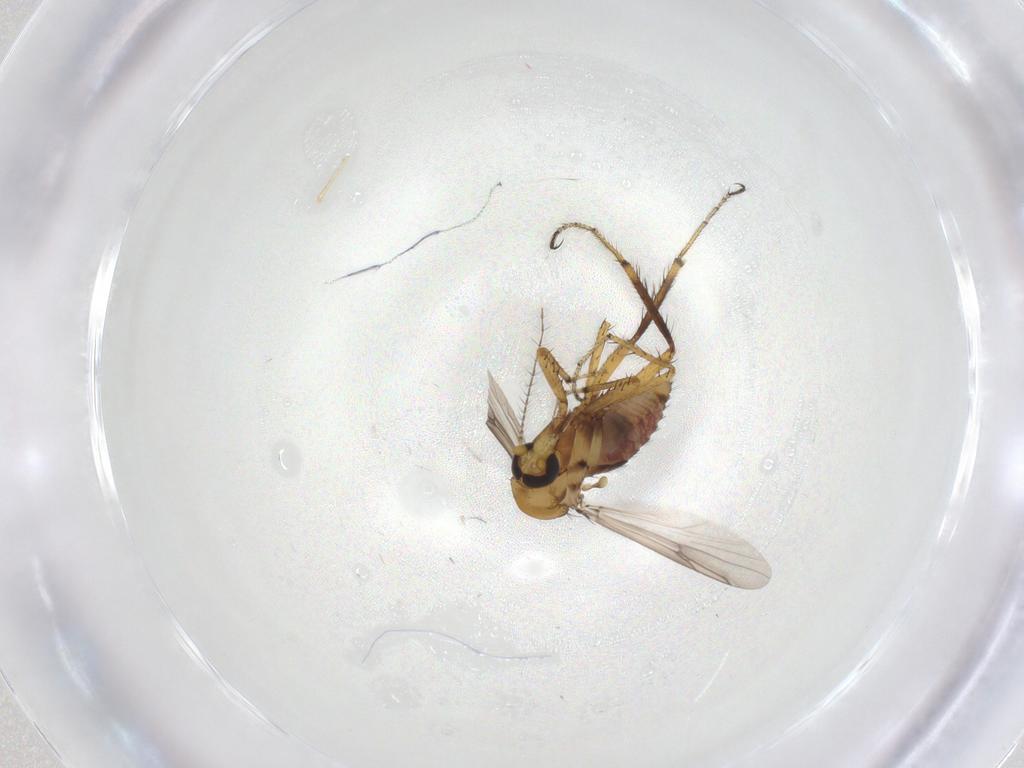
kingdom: Animalia
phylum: Arthropoda
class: Insecta
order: Diptera
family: Ceratopogonidae
